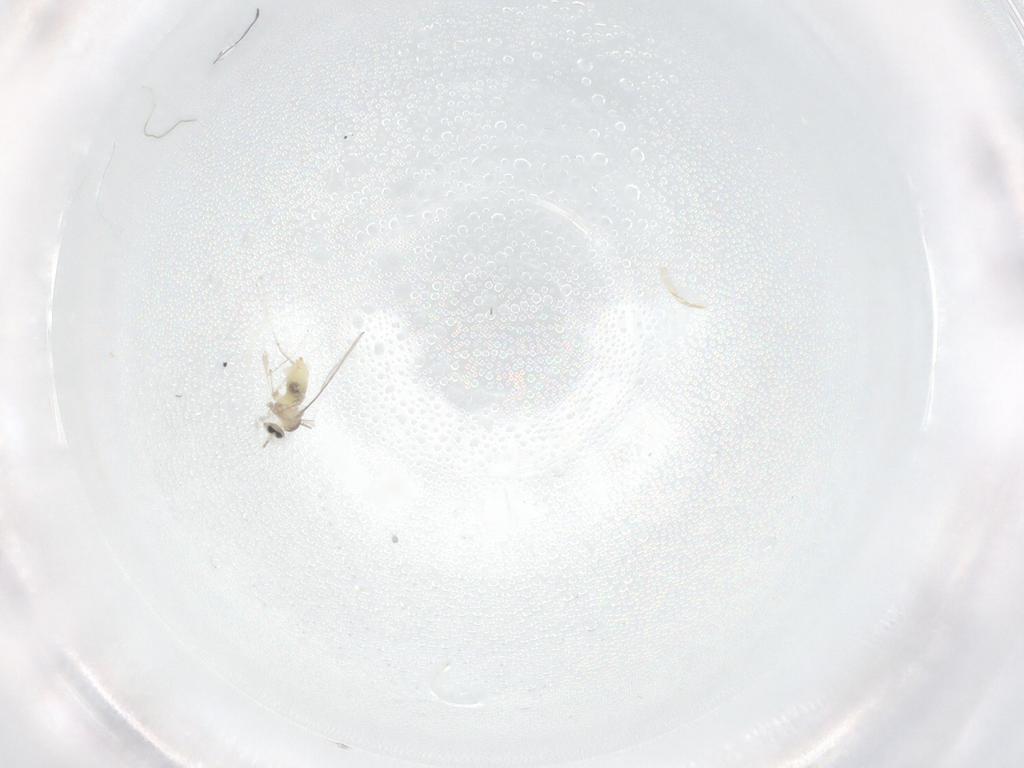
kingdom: Animalia
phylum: Arthropoda
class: Insecta
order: Diptera
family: Cecidomyiidae
